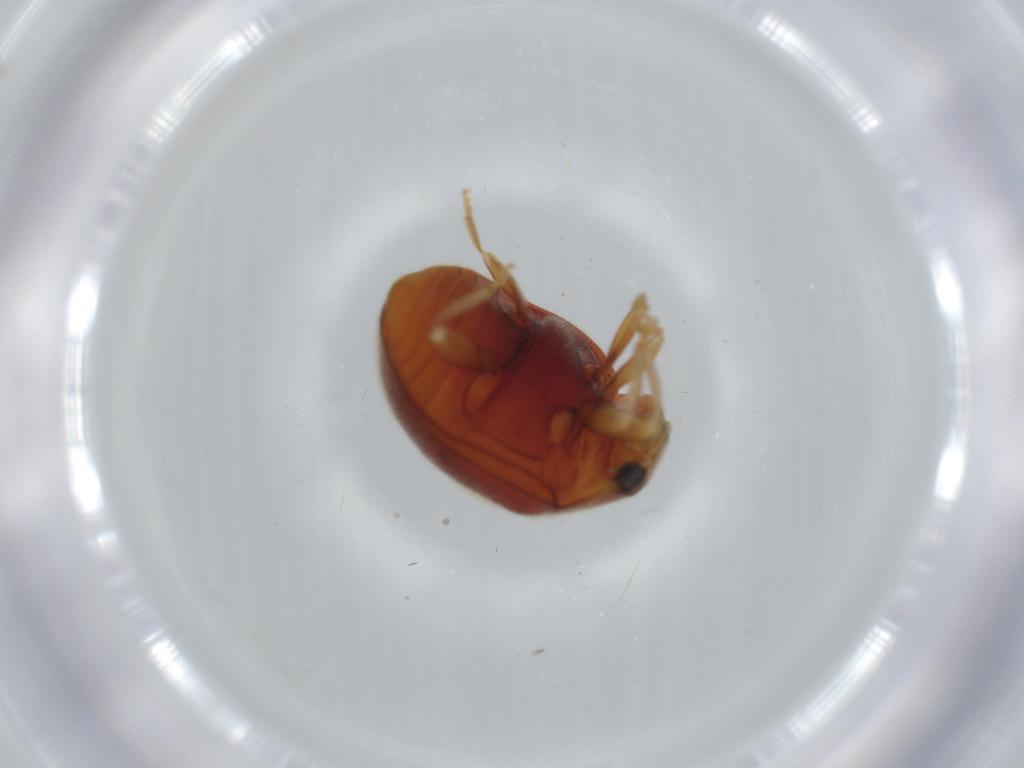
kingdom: Animalia
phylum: Arthropoda
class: Insecta
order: Coleoptera
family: Coccinellidae
